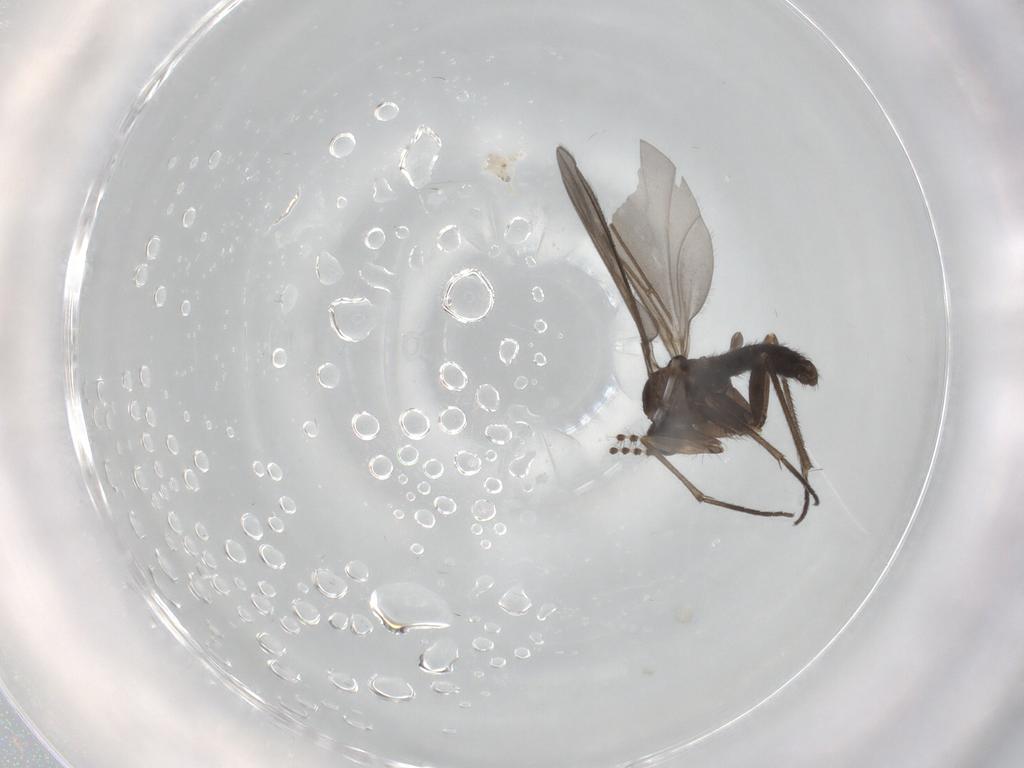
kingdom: Animalia
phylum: Arthropoda
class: Insecta
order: Diptera
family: Sciaridae
